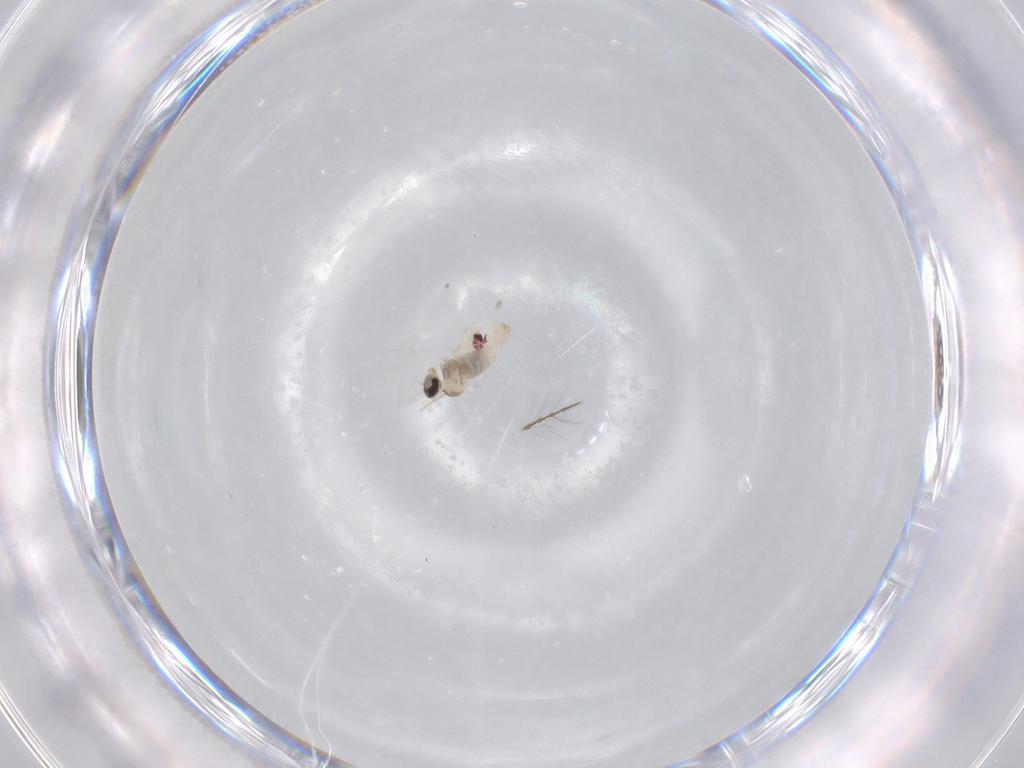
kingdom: Animalia
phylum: Arthropoda
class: Insecta
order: Diptera
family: Chironomidae
